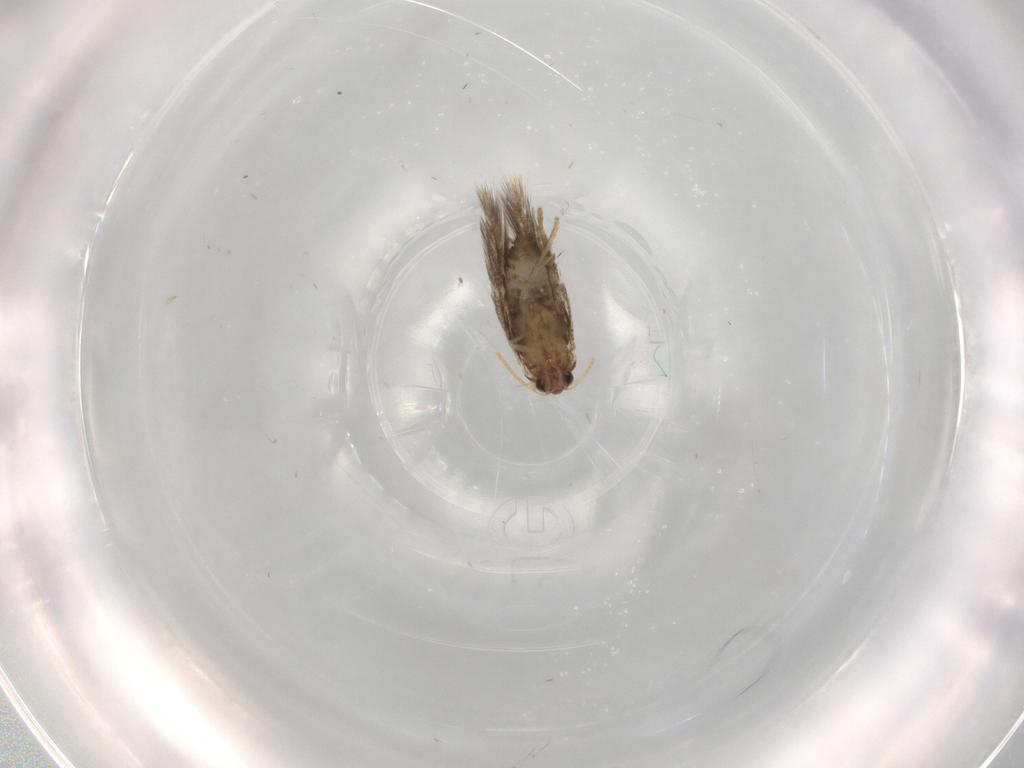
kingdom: Animalia
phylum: Arthropoda
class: Insecta
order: Lepidoptera
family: Copromorphidae
